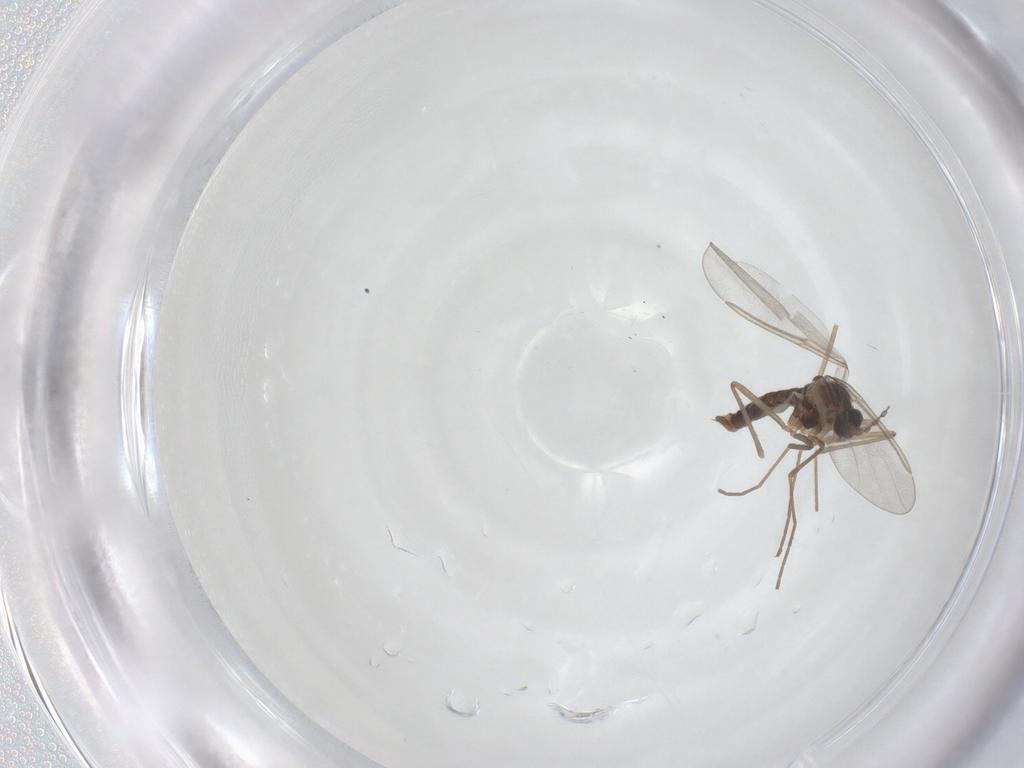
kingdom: Animalia
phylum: Arthropoda
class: Insecta
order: Diptera
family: Cecidomyiidae
